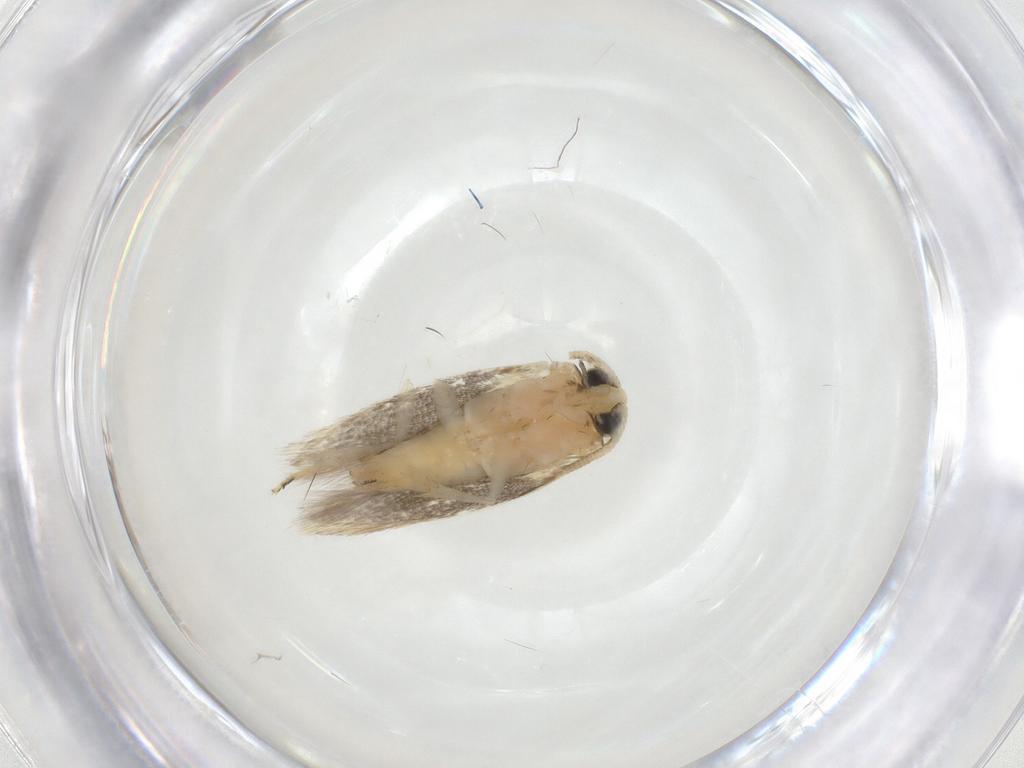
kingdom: Animalia
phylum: Arthropoda
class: Insecta
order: Lepidoptera
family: Opostegidae
